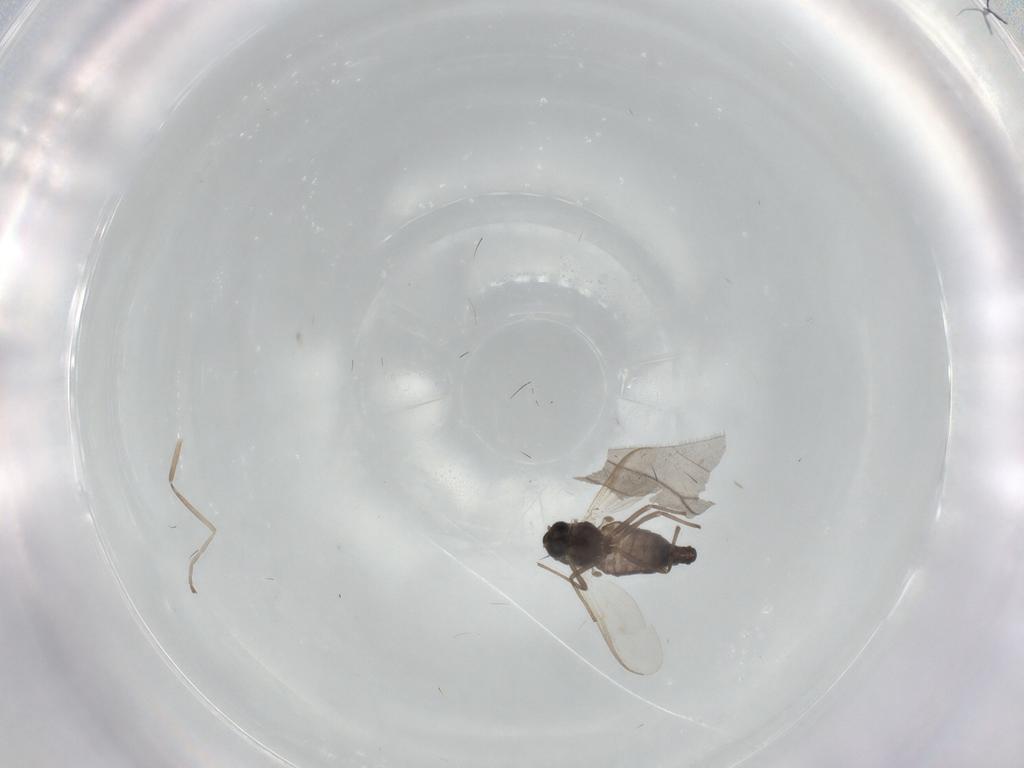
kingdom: Animalia
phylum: Arthropoda
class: Insecta
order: Diptera
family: Cecidomyiidae
